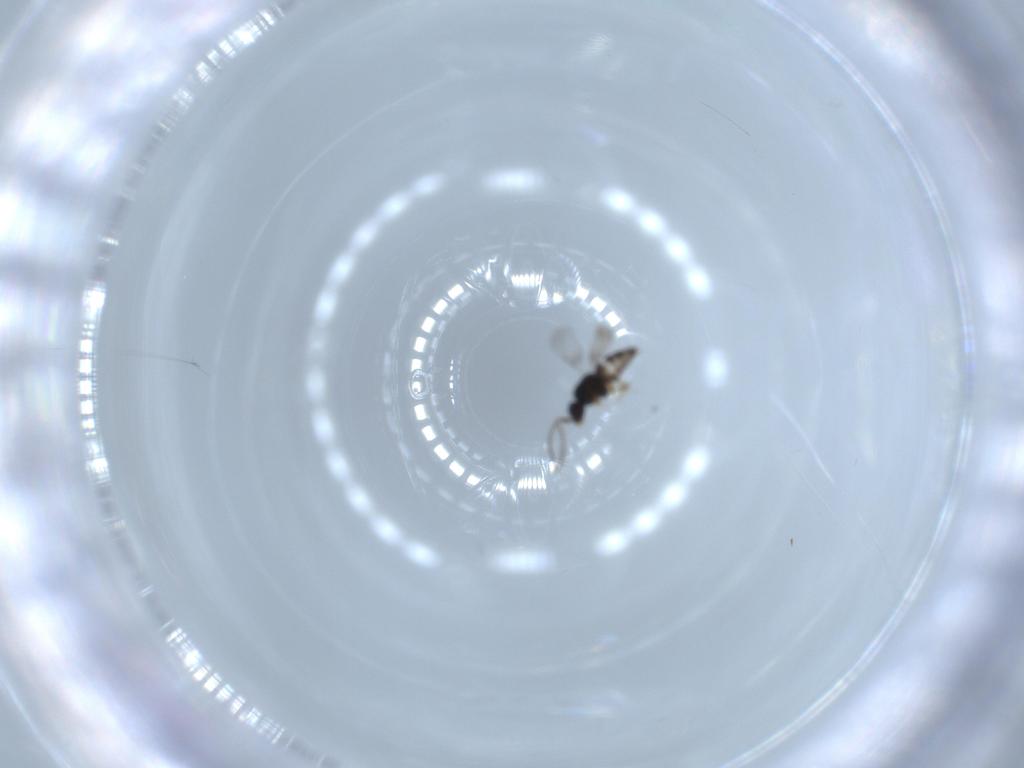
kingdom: Animalia
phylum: Arthropoda
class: Insecta
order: Hymenoptera
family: Ceraphronidae
